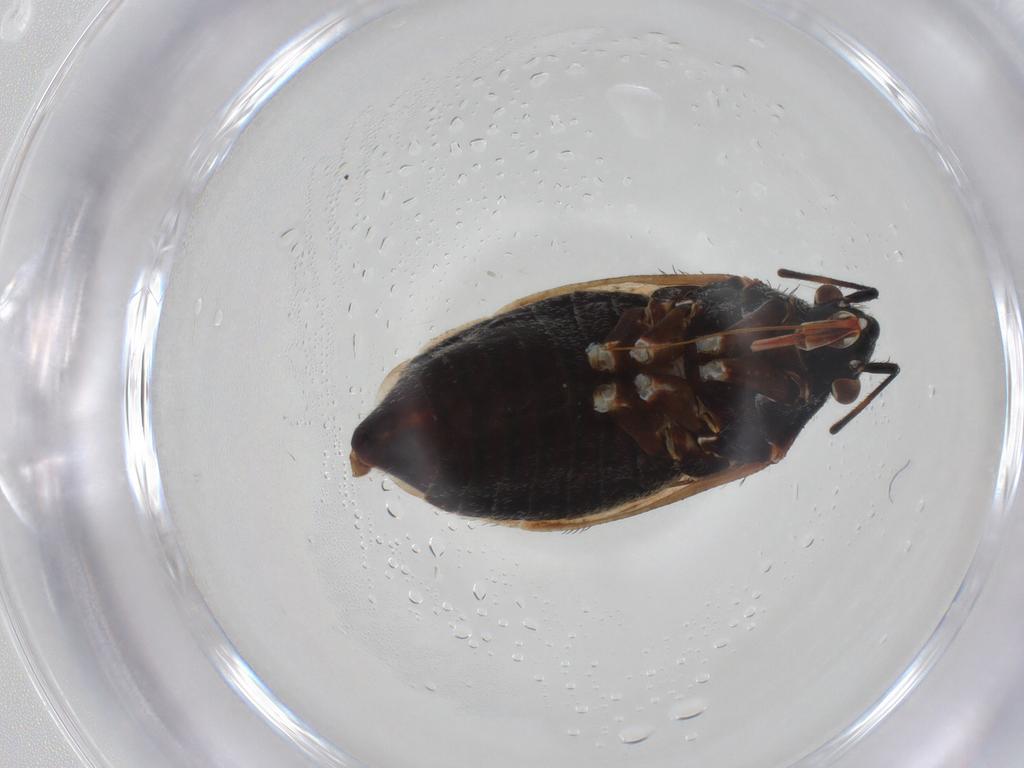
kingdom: Animalia
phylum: Arthropoda
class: Insecta
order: Hemiptera
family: Miridae
